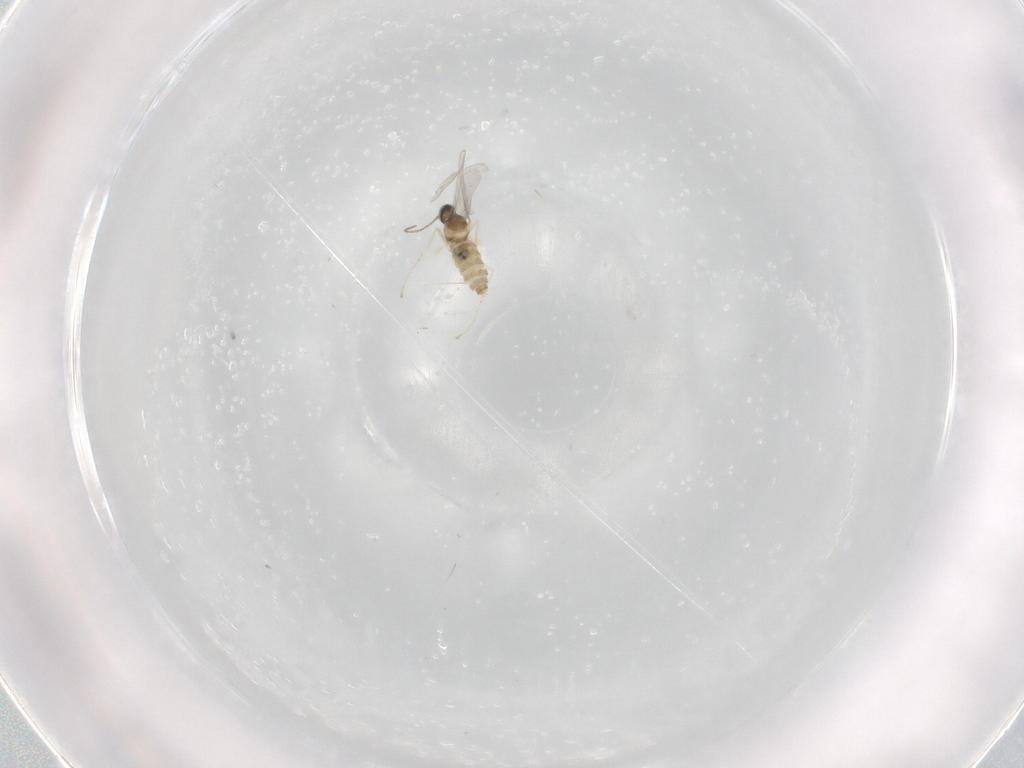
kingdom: Animalia
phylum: Arthropoda
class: Insecta
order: Diptera
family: Cecidomyiidae
